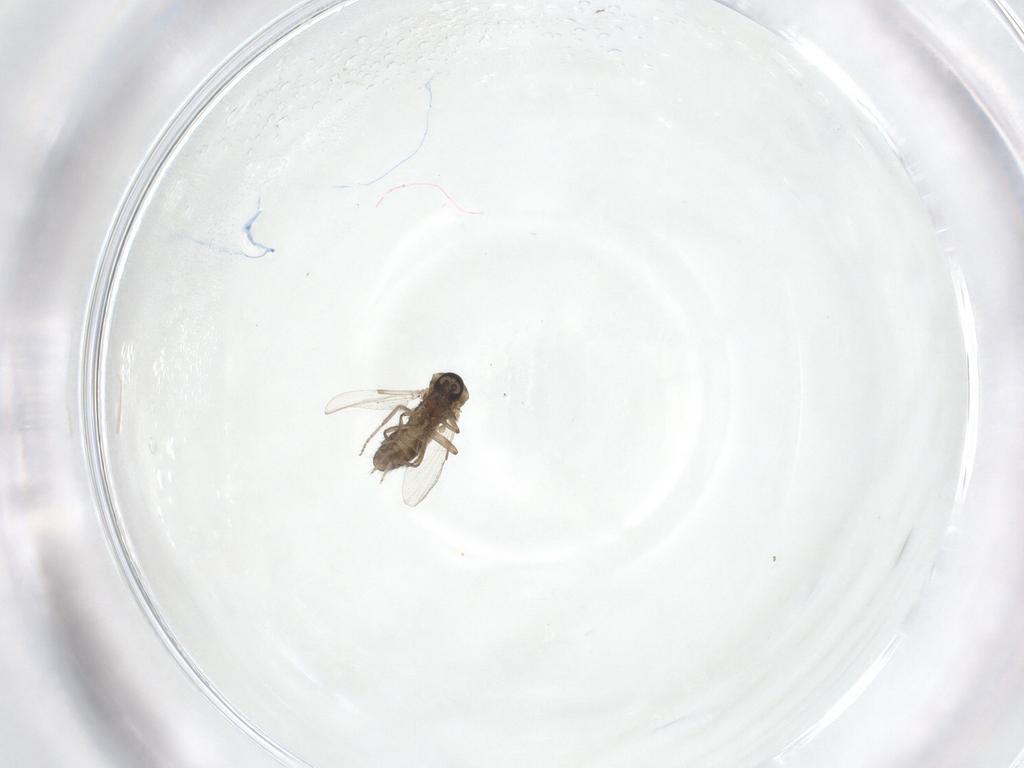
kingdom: Animalia
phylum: Arthropoda
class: Insecta
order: Diptera
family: Ceratopogonidae
